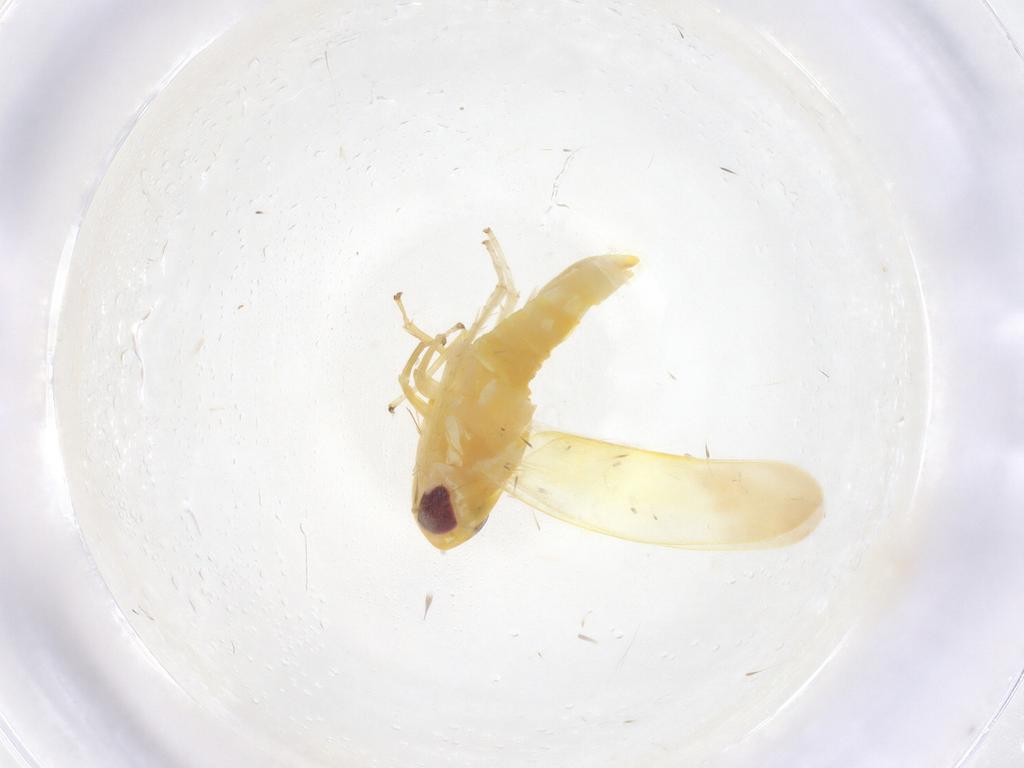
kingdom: Animalia
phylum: Arthropoda
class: Insecta
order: Hemiptera
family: Cicadellidae
